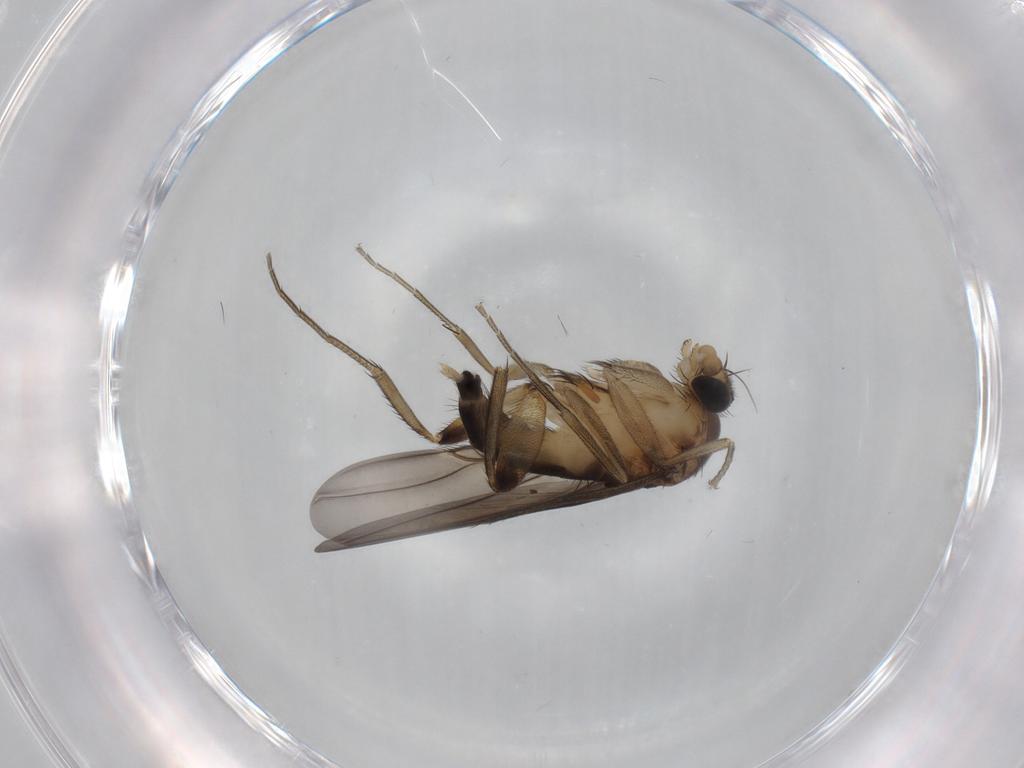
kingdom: Animalia
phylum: Arthropoda
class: Insecta
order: Diptera
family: Phoridae
